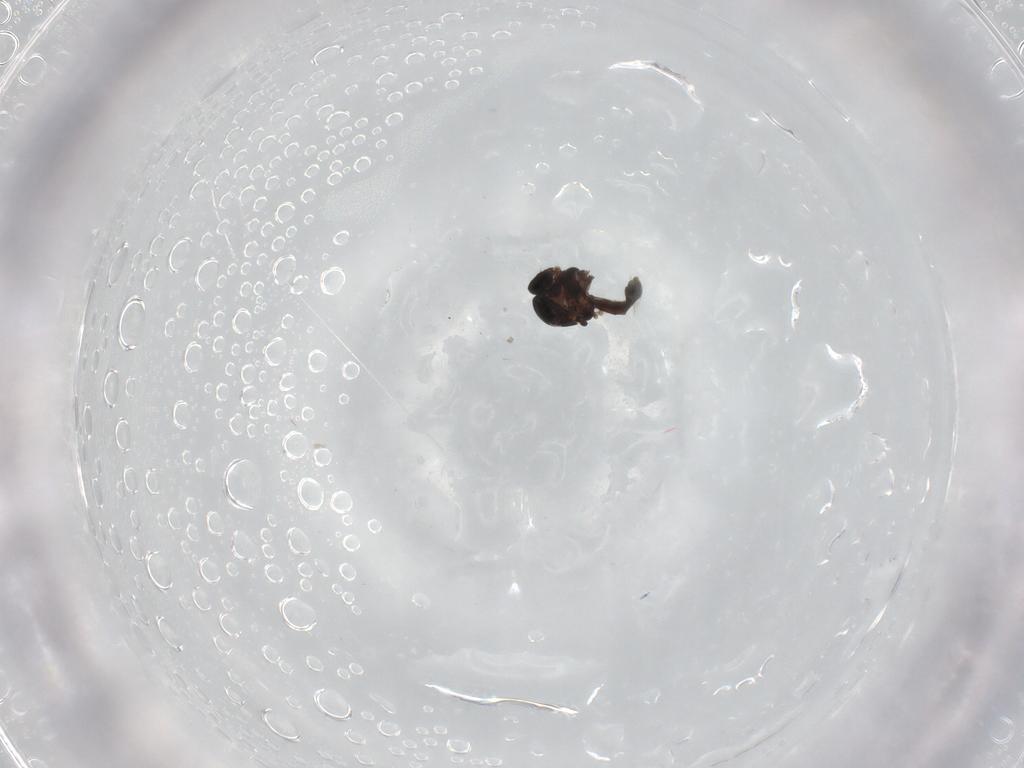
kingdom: Animalia
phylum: Arthropoda
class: Insecta
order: Diptera
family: Ceratopogonidae
